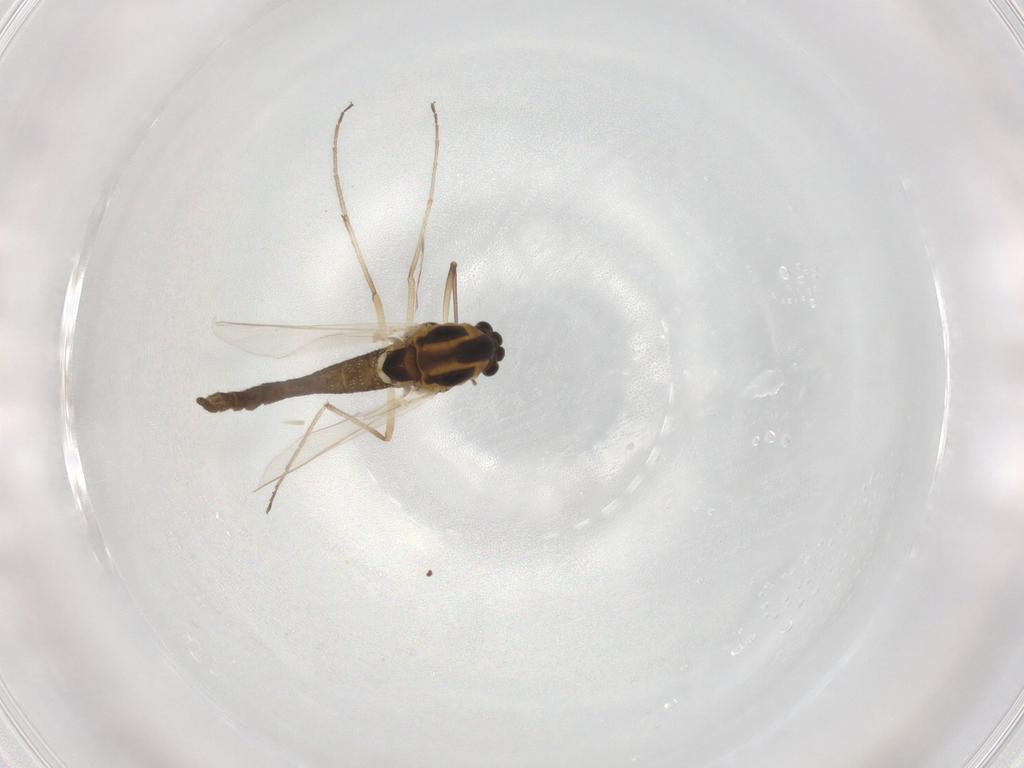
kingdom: Animalia
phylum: Arthropoda
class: Insecta
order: Diptera
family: Chironomidae
